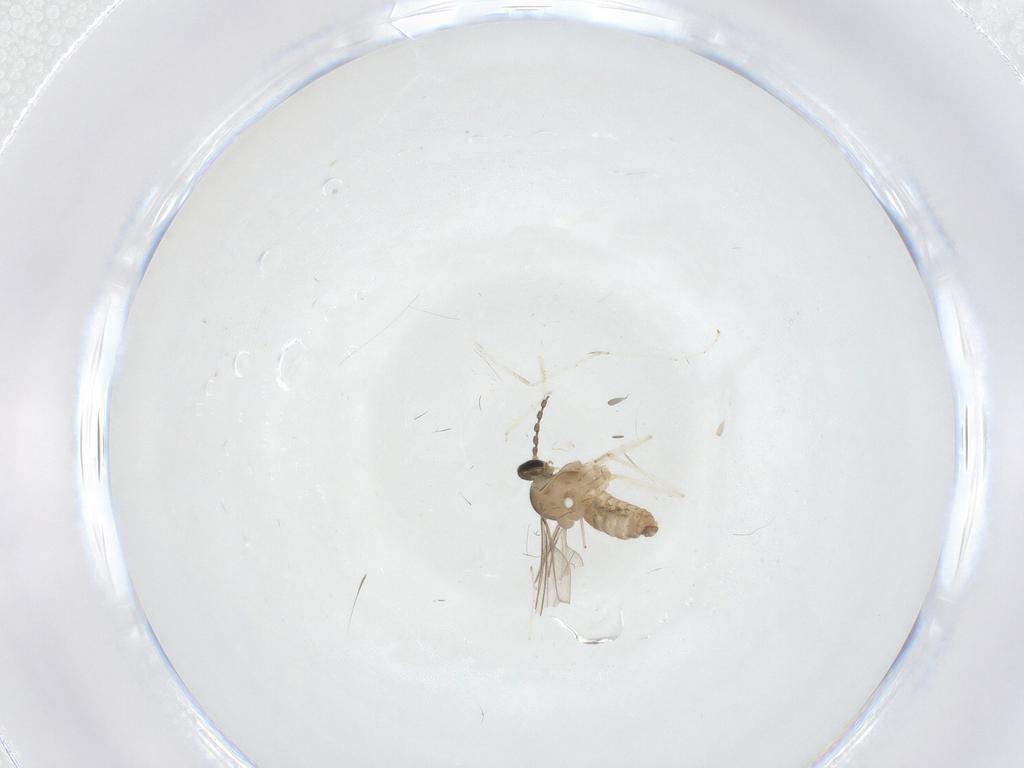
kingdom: Animalia
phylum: Arthropoda
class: Insecta
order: Diptera
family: Cecidomyiidae
